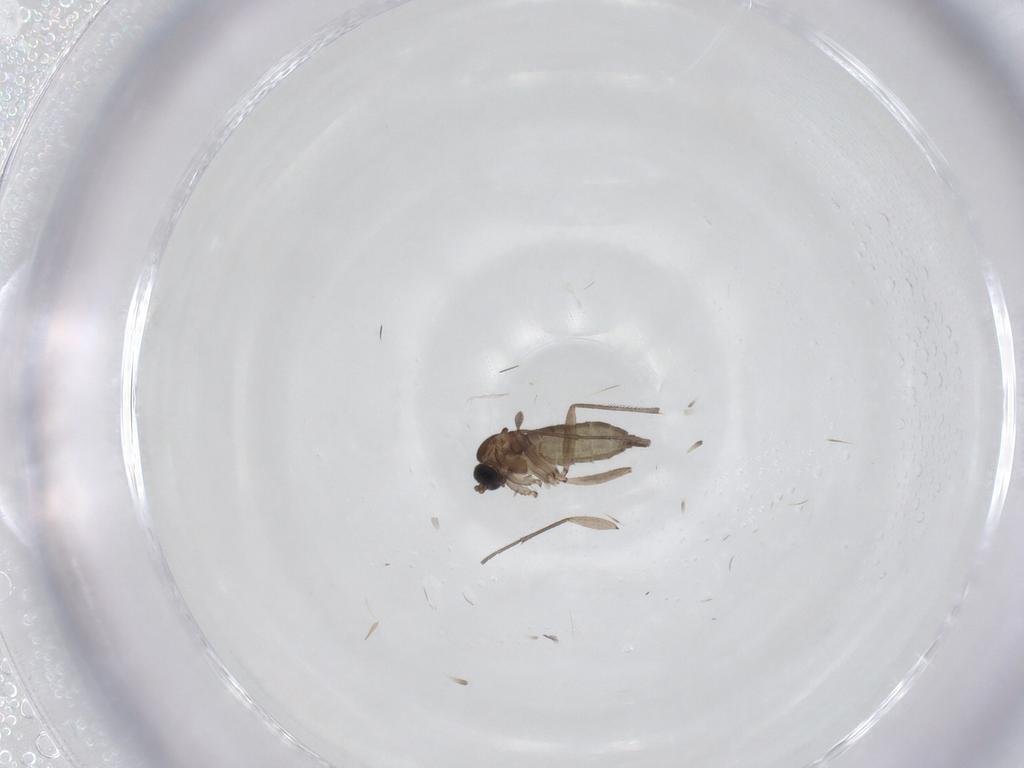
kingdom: Animalia
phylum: Arthropoda
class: Insecta
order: Diptera
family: Sciaridae
